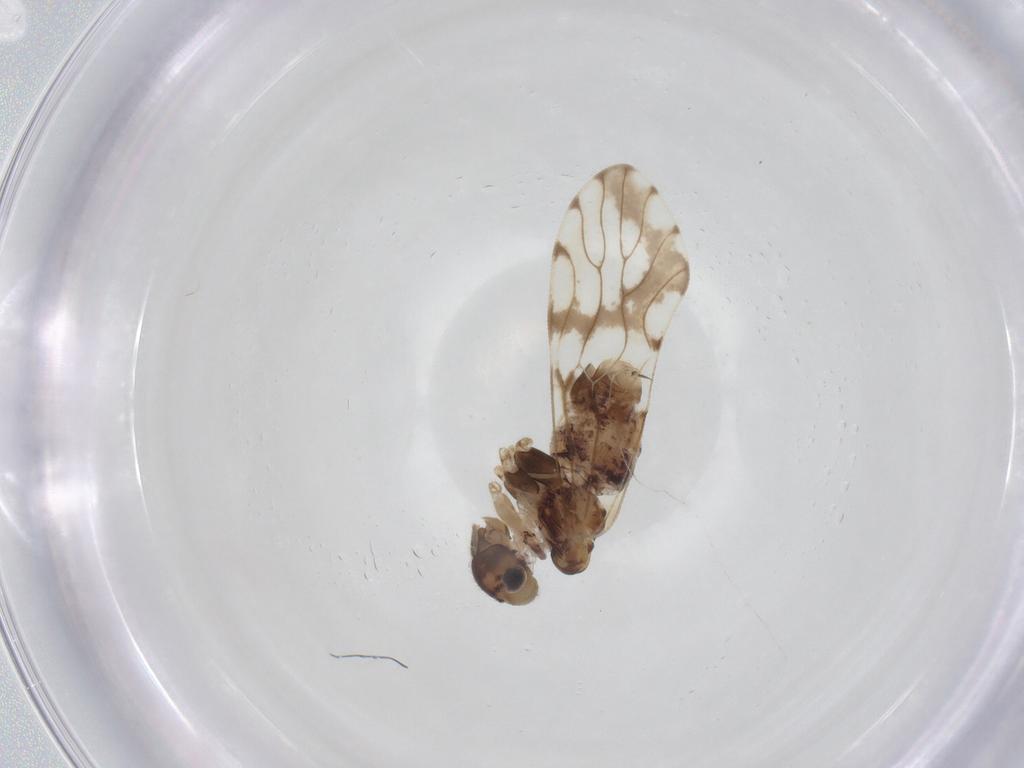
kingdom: Animalia
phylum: Arthropoda
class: Insecta
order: Psocodea
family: Epipsocidae
